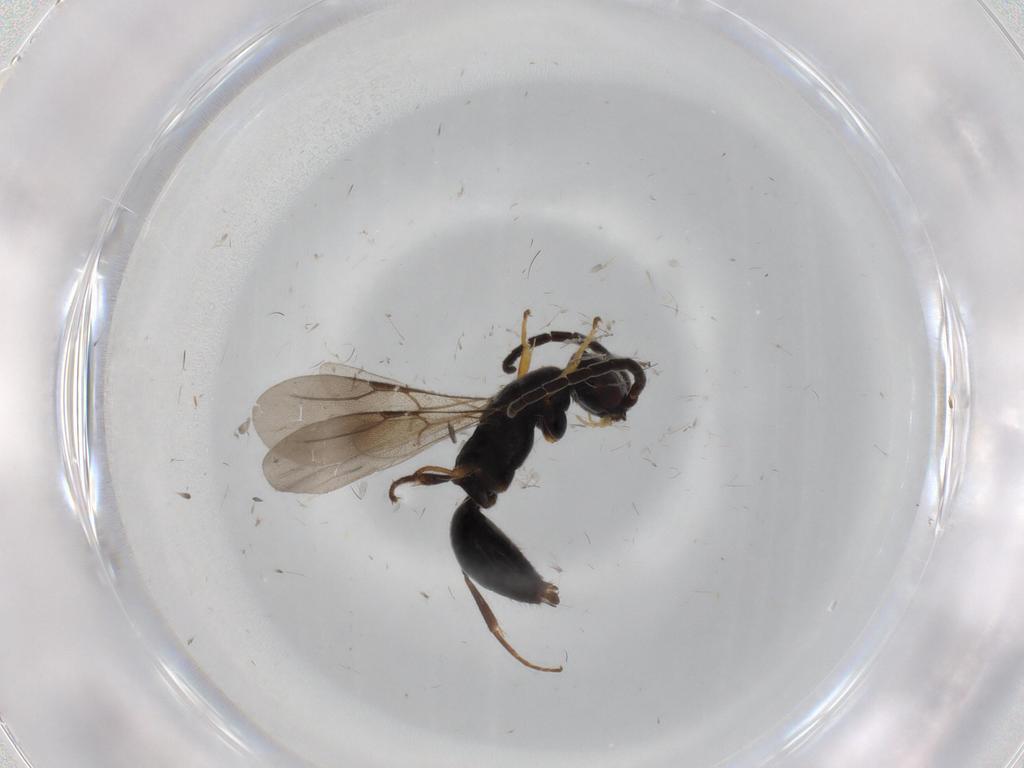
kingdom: Animalia
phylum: Arthropoda
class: Insecta
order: Hymenoptera
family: Bethylidae
